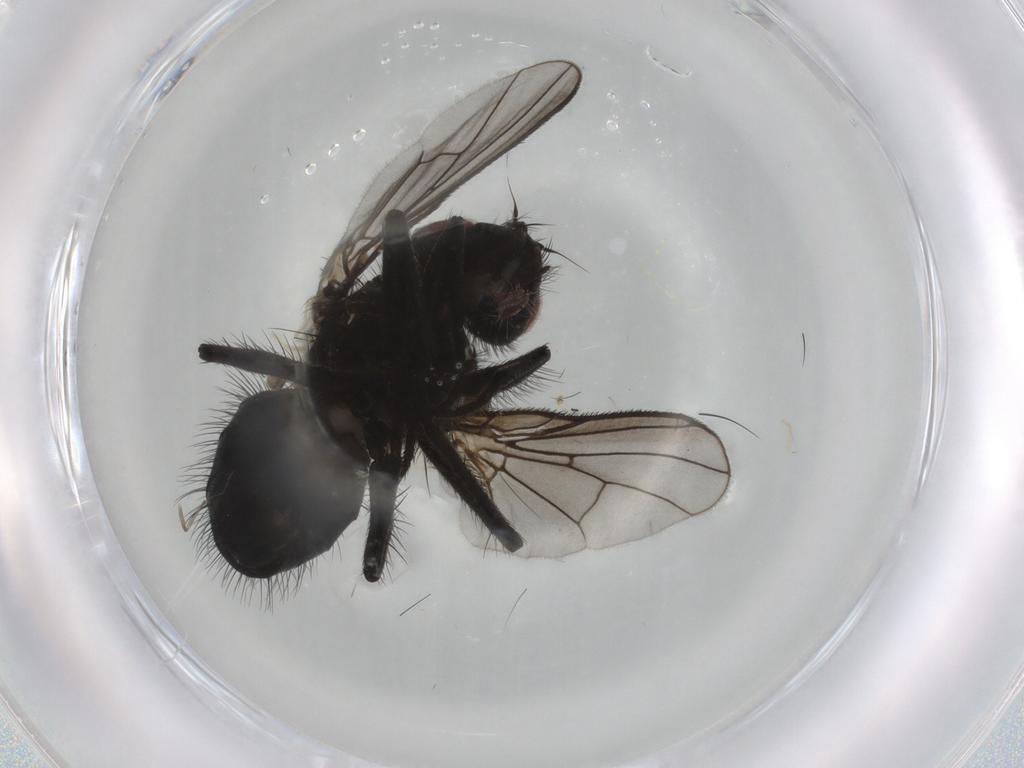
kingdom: Animalia
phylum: Arthropoda
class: Insecta
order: Diptera
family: Muscidae
